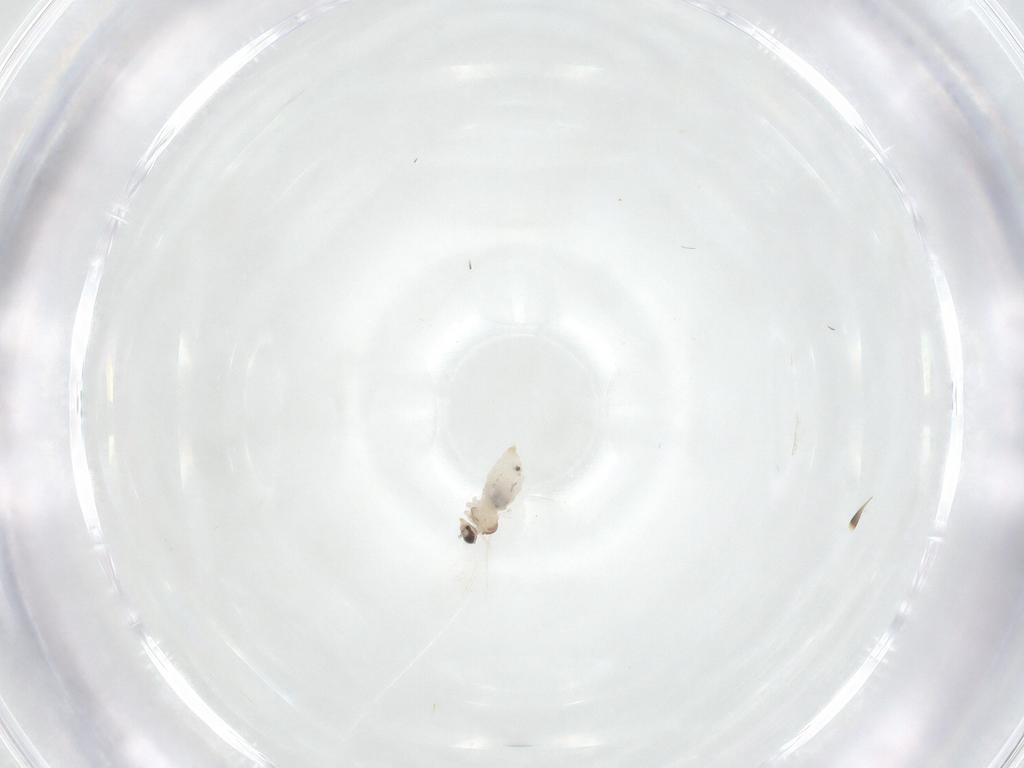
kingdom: Animalia
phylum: Arthropoda
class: Insecta
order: Diptera
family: Cecidomyiidae
